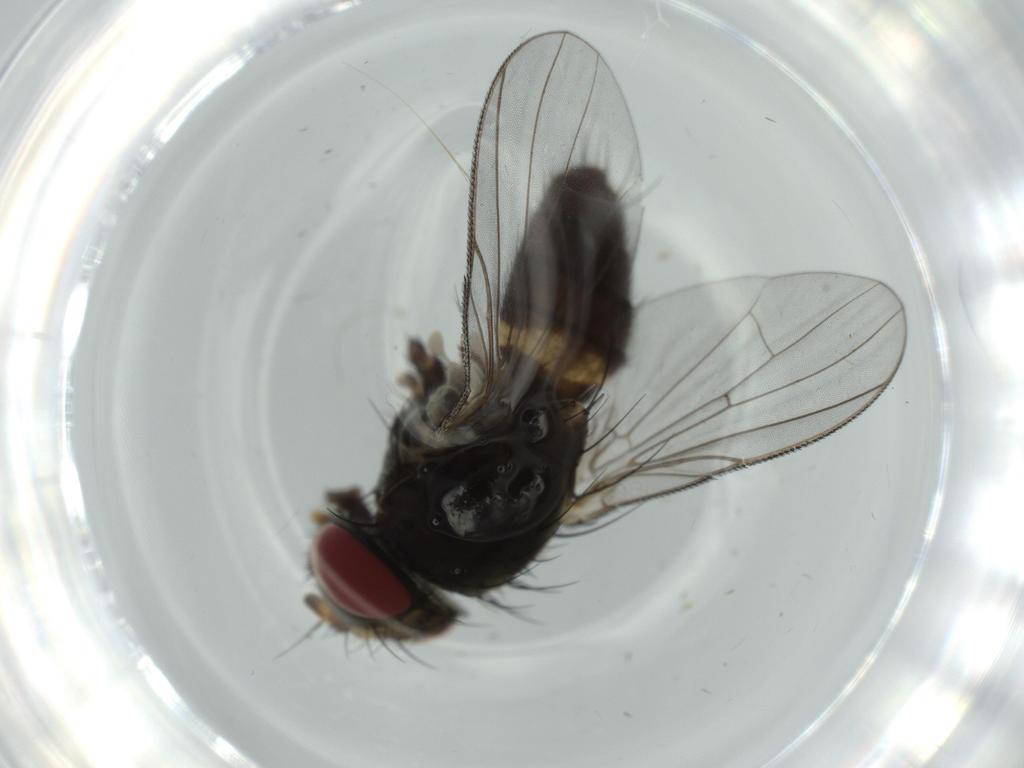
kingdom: Animalia
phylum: Arthropoda
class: Insecta
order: Diptera
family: Fannia
